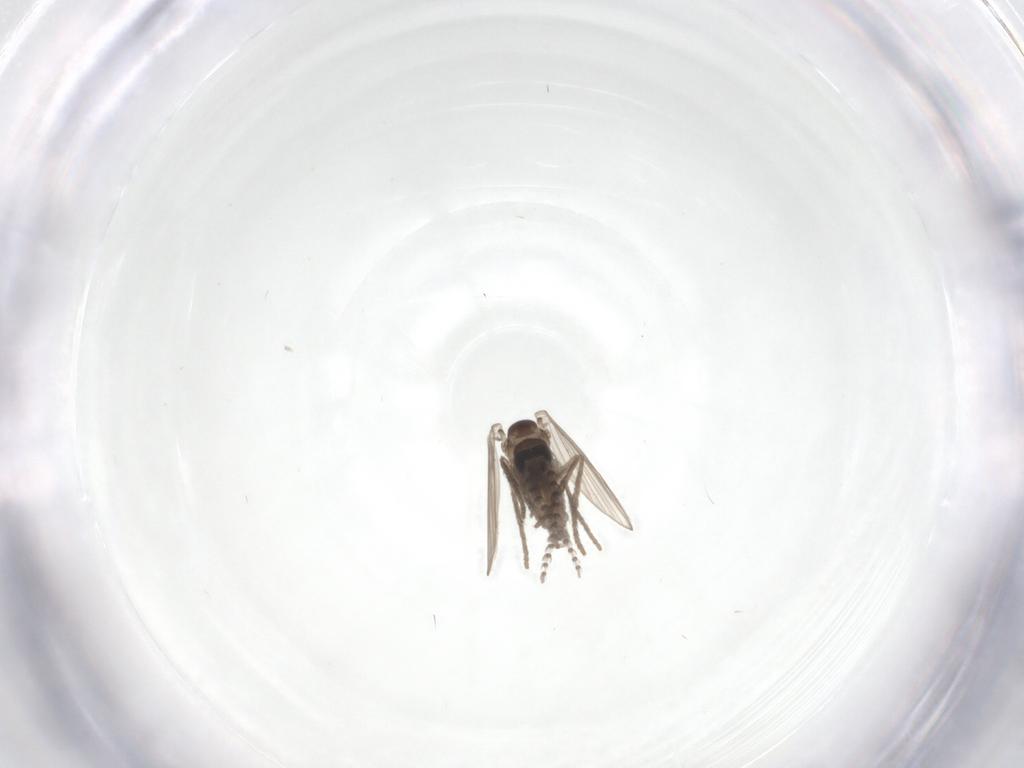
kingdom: Animalia
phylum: Arthropoda
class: Insecta
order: Diptera
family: Psychodidae
